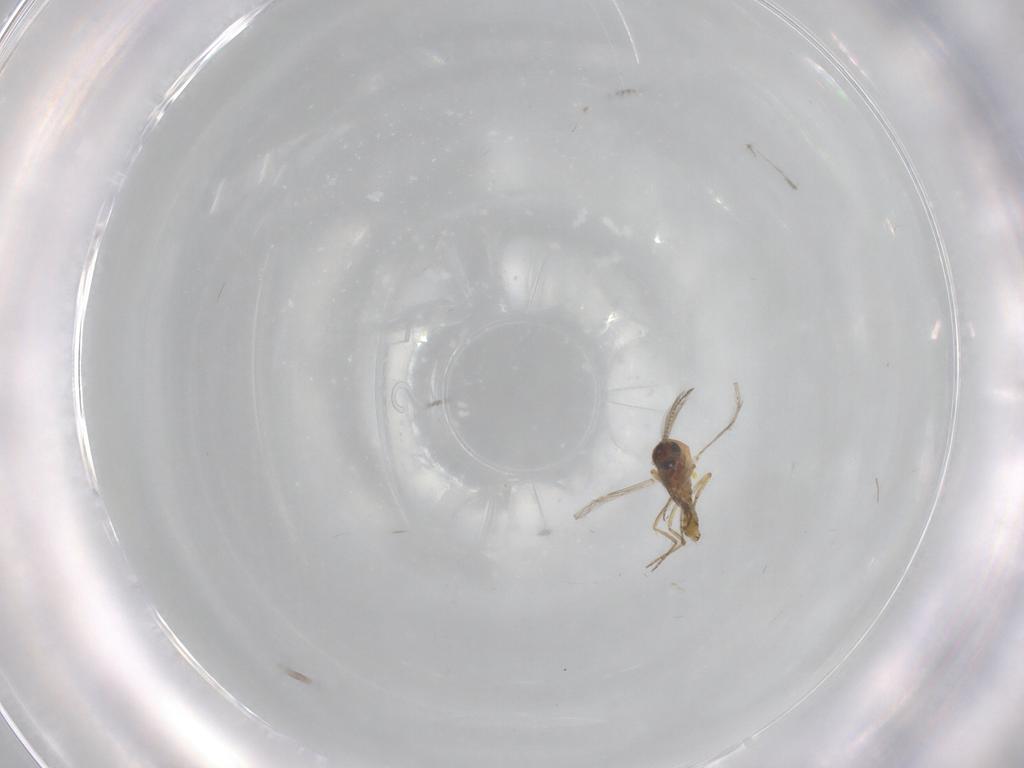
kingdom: Animalia
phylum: Arthropoda
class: Insecta
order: Diptera
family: Ceratopogonidae
